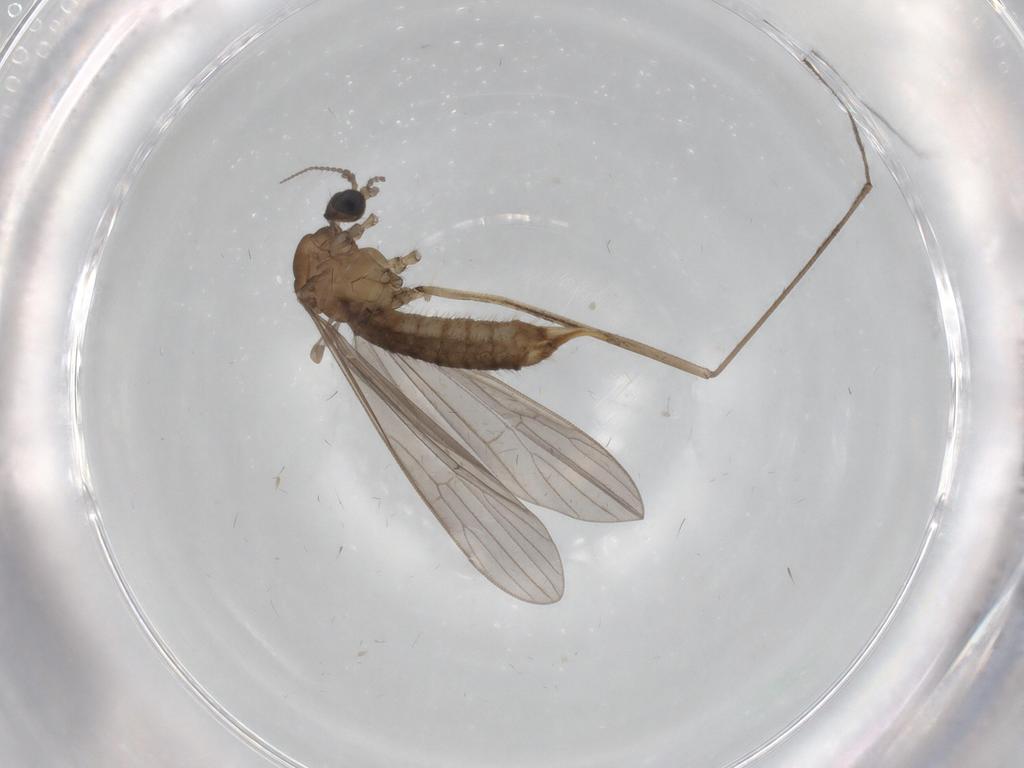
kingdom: Animalia
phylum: Arthropoda
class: Insecta
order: Diptera
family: Limoniidae
